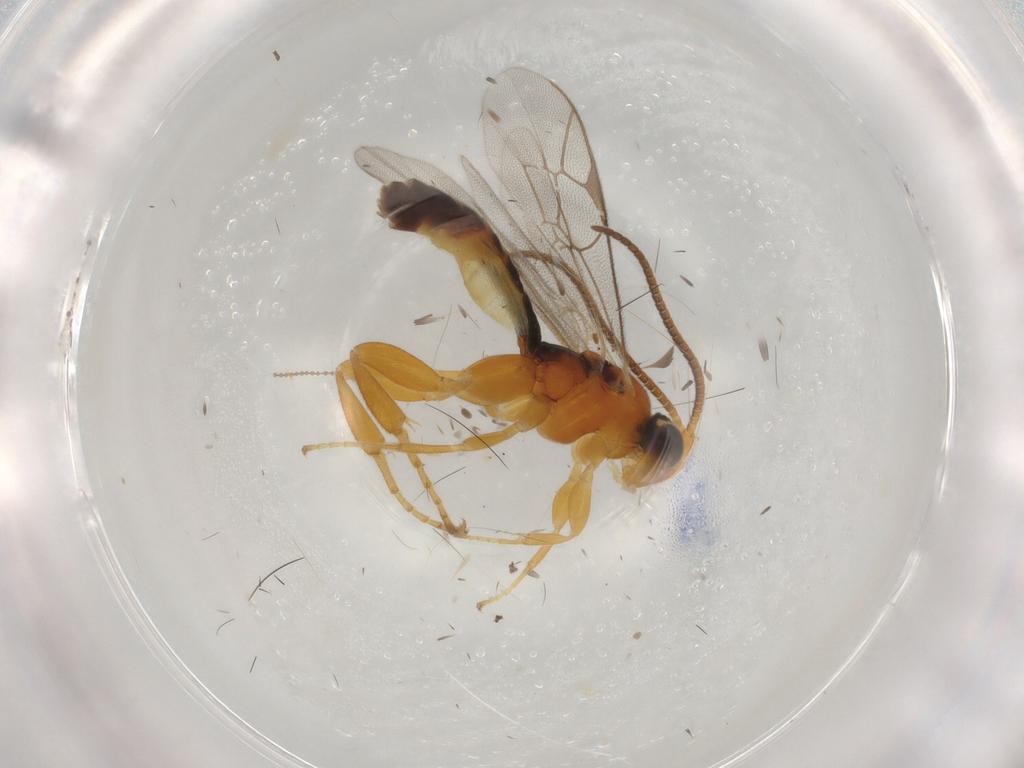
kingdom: Animalia
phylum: Arthropoda
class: Insecta
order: Hymenoptera
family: Ichneumonidae
